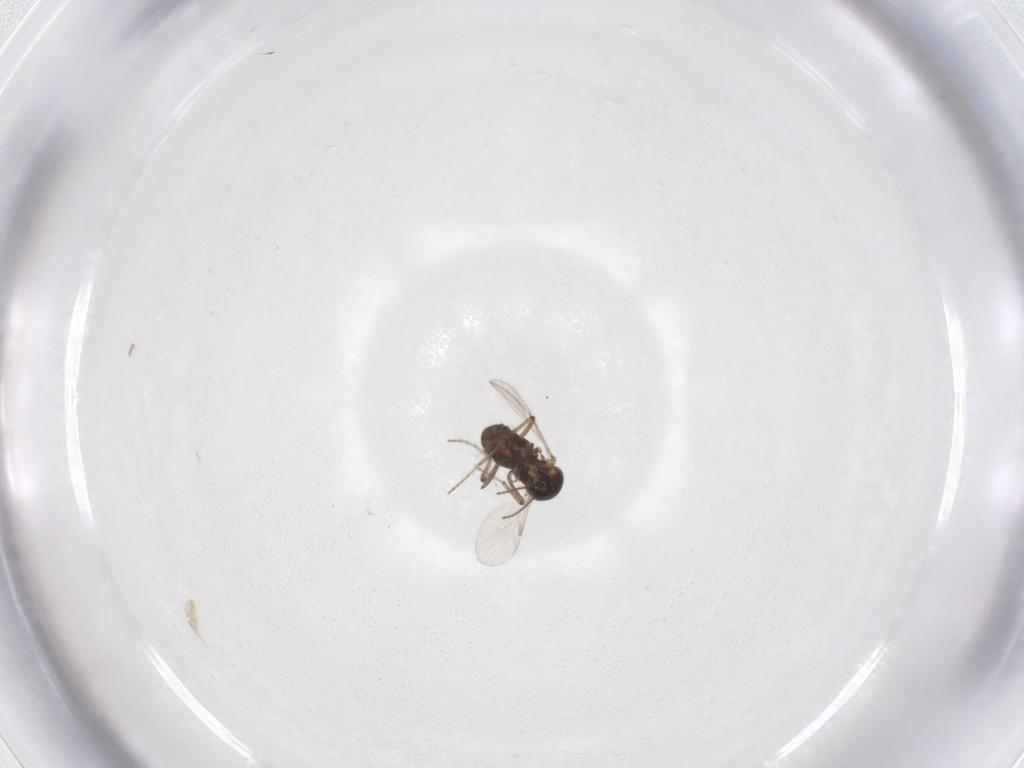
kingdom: Animalia
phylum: Arthropoda
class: Insecta
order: Diptera
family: Ceratopogonidae
